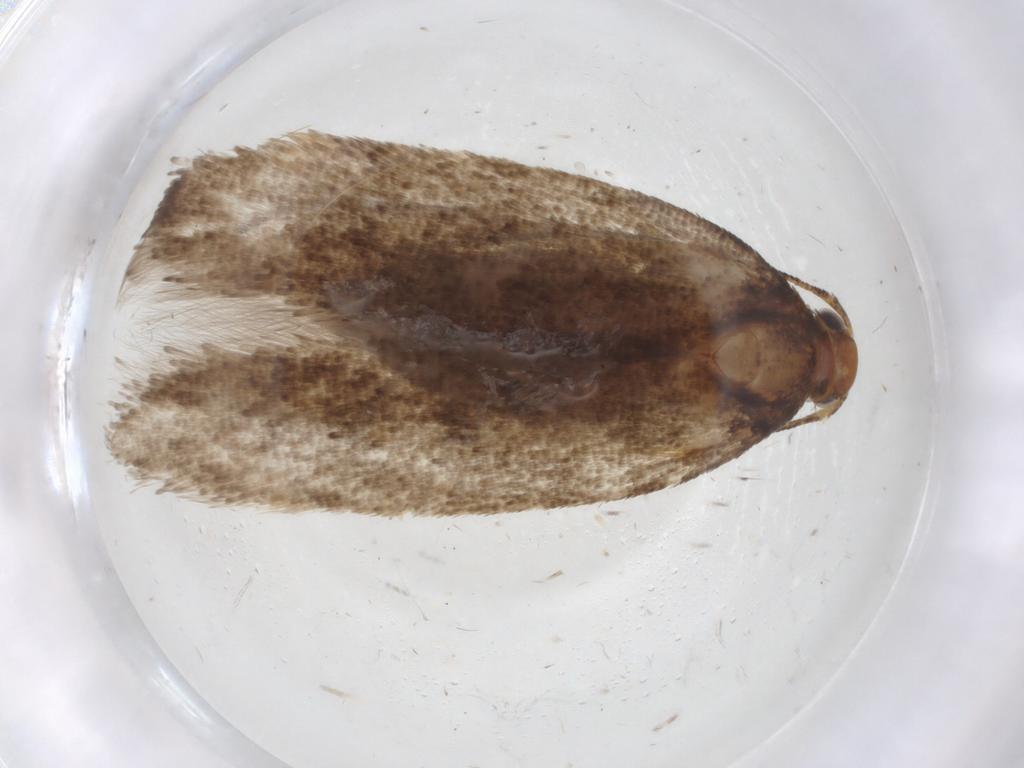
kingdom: Animalia
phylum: Arthropoda
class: Insecta
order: Lepidoptera
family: Gelechiidae
